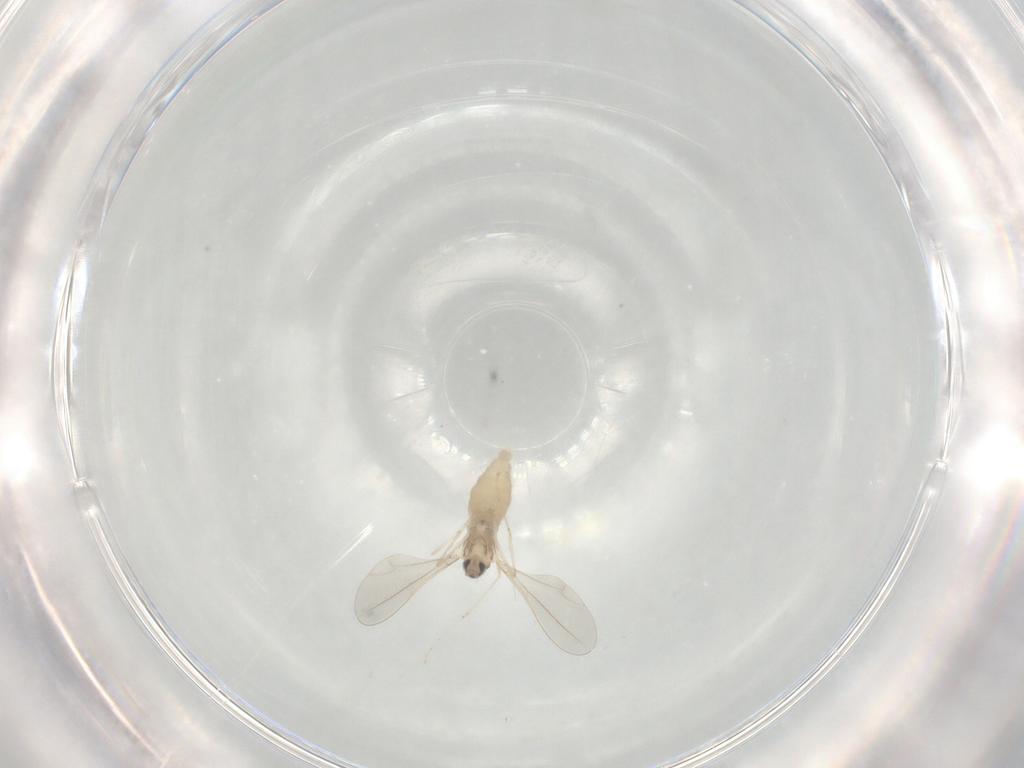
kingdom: Animalia
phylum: Arthropoda
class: Insecta
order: Diptera
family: Cecidomyiidae
